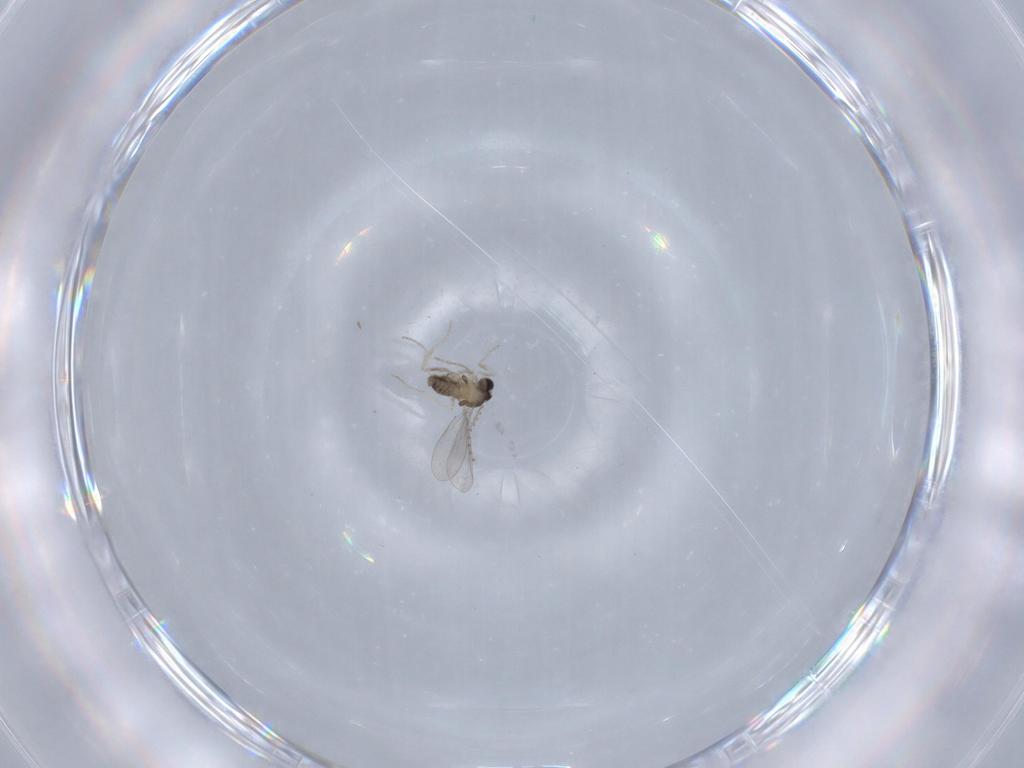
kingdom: Animalia
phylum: Arthropoda
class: Insecta
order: Diptera
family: Cecidomyiidae
